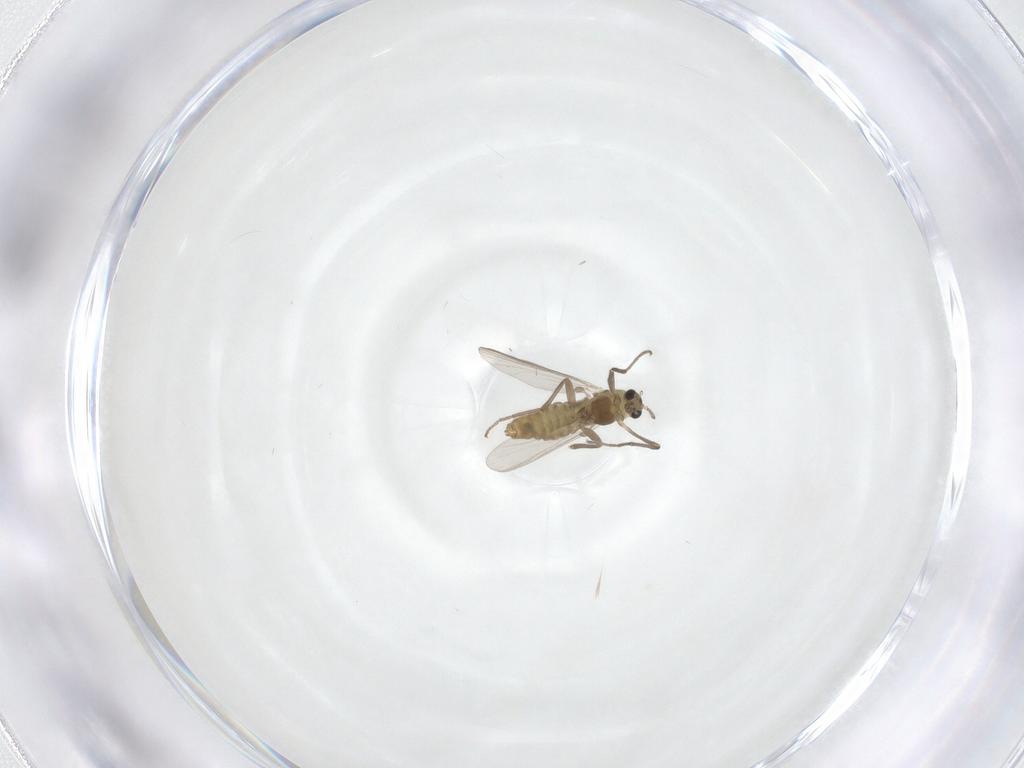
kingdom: Animalia
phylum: Arthropoda
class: Insecta
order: Diptera
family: Chironomidae
